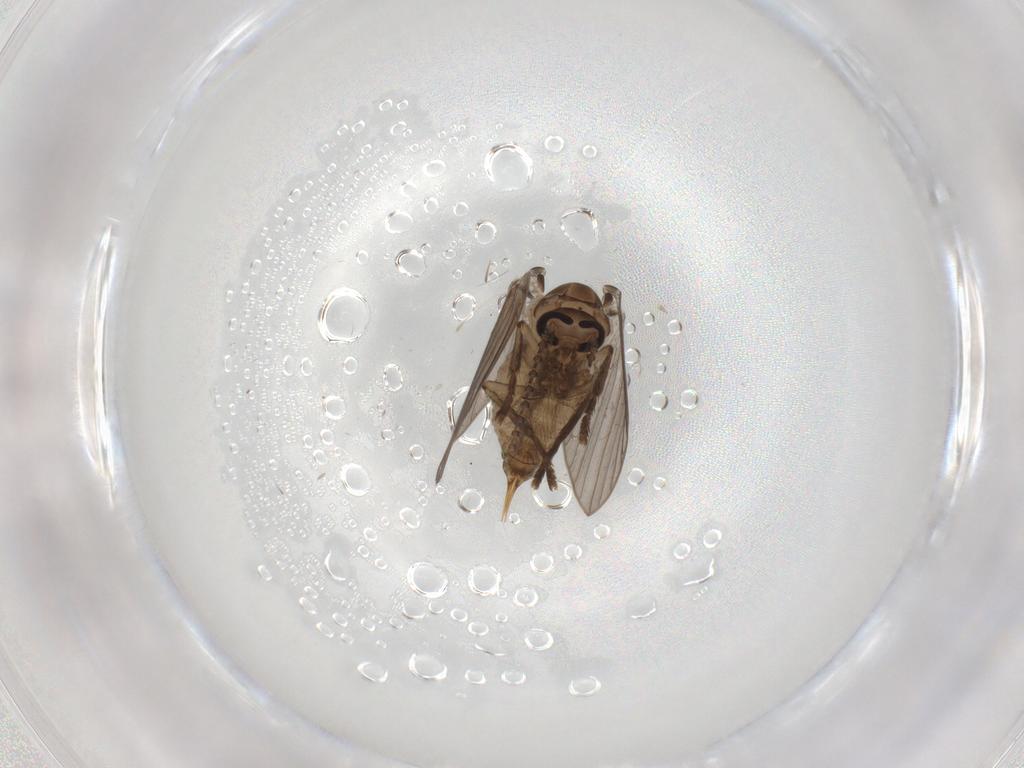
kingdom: Animalia
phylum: Arthropoda
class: Insecta
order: Diptera
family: Psychodidae
